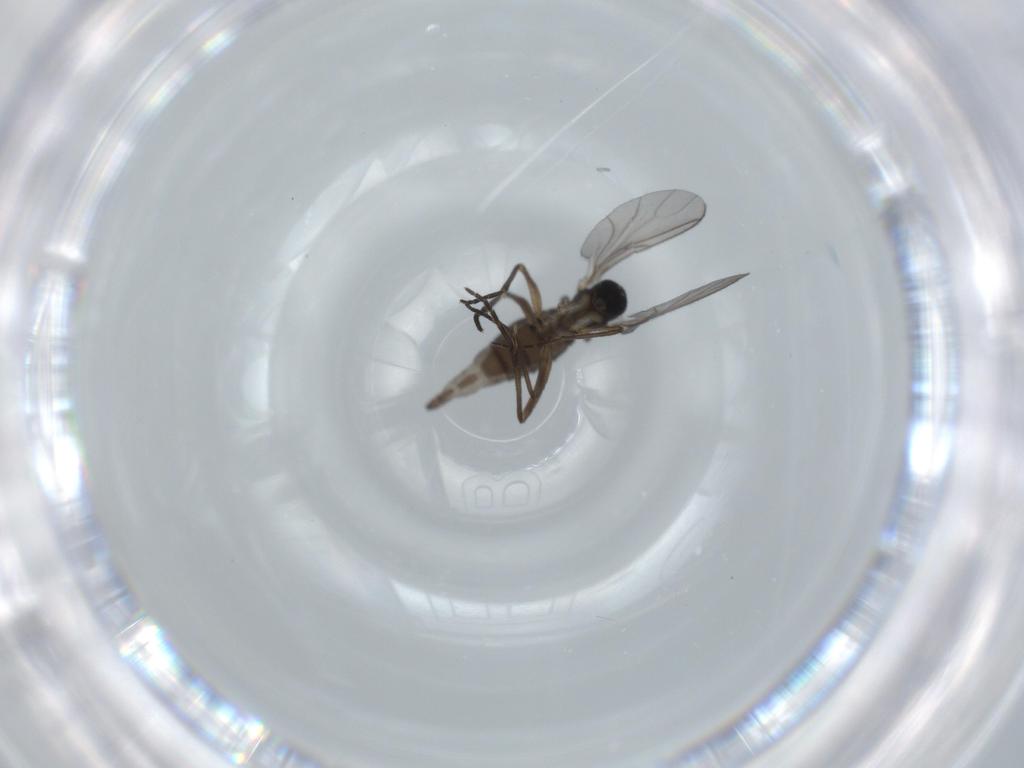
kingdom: Animalia
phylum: Arthropoda
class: Insecta
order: Diptera
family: Sciaridae
